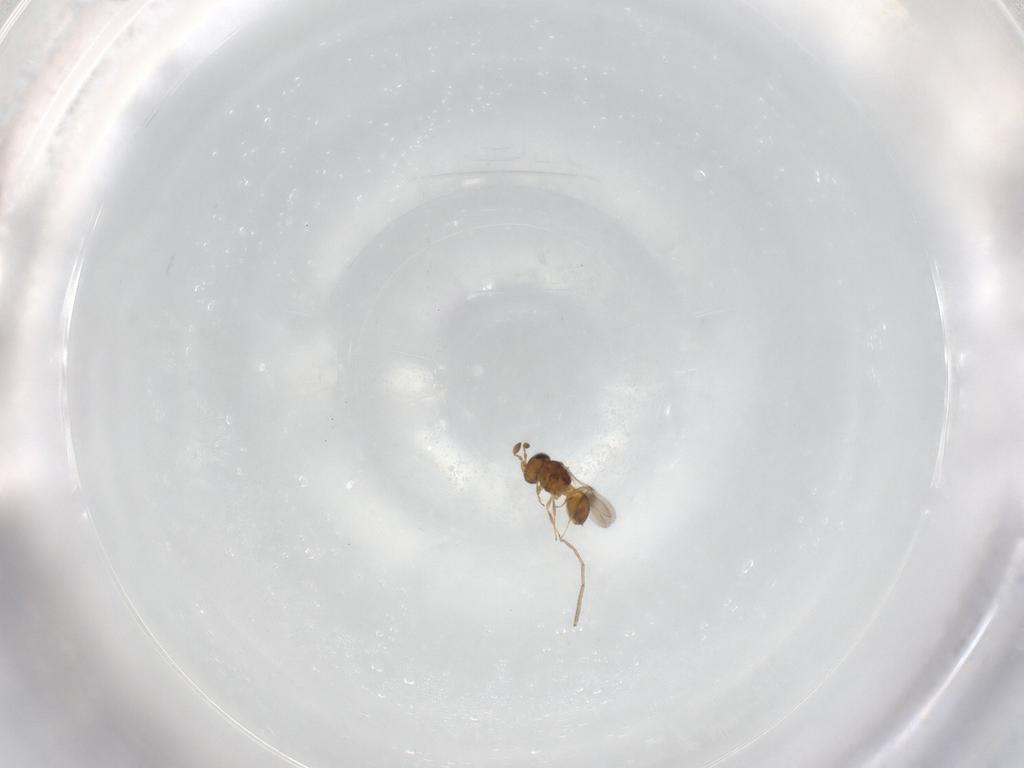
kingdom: Animalia
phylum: Arthropoda
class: Insecta
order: Hymenoptera
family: Scelionidae
